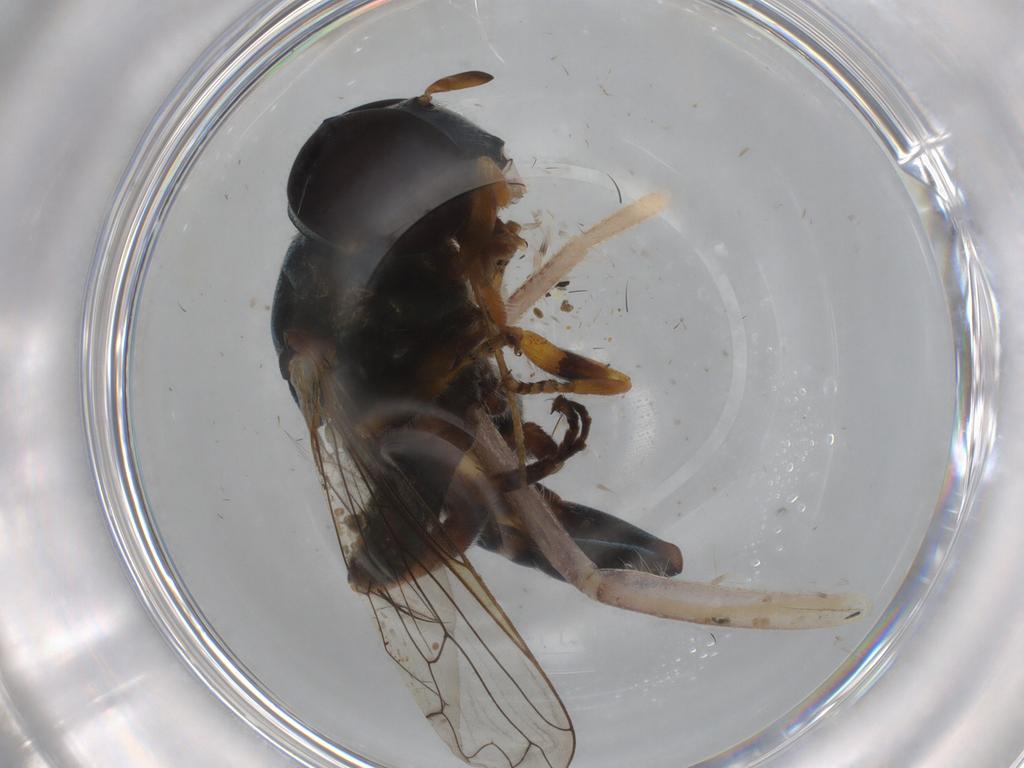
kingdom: Animalia
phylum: Arthropoda
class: Insecta
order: Diptera
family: Syrphidae
